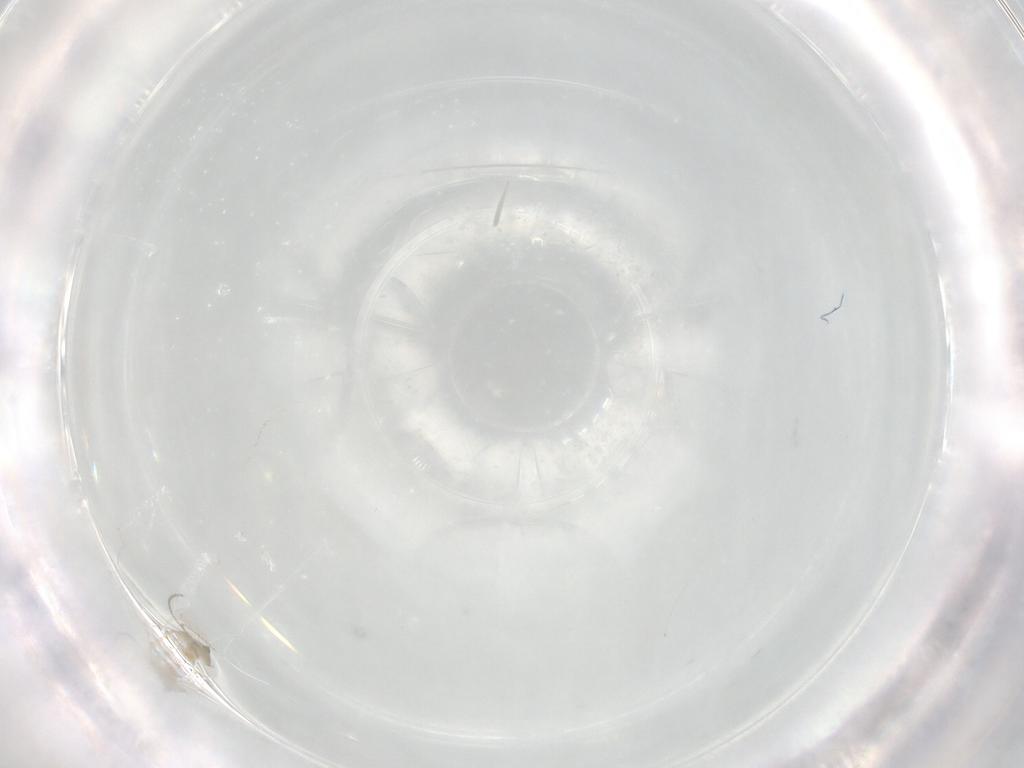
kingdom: Animalia
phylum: Arthropoda
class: Insecta
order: Diptera
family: Cecidomyiidae
